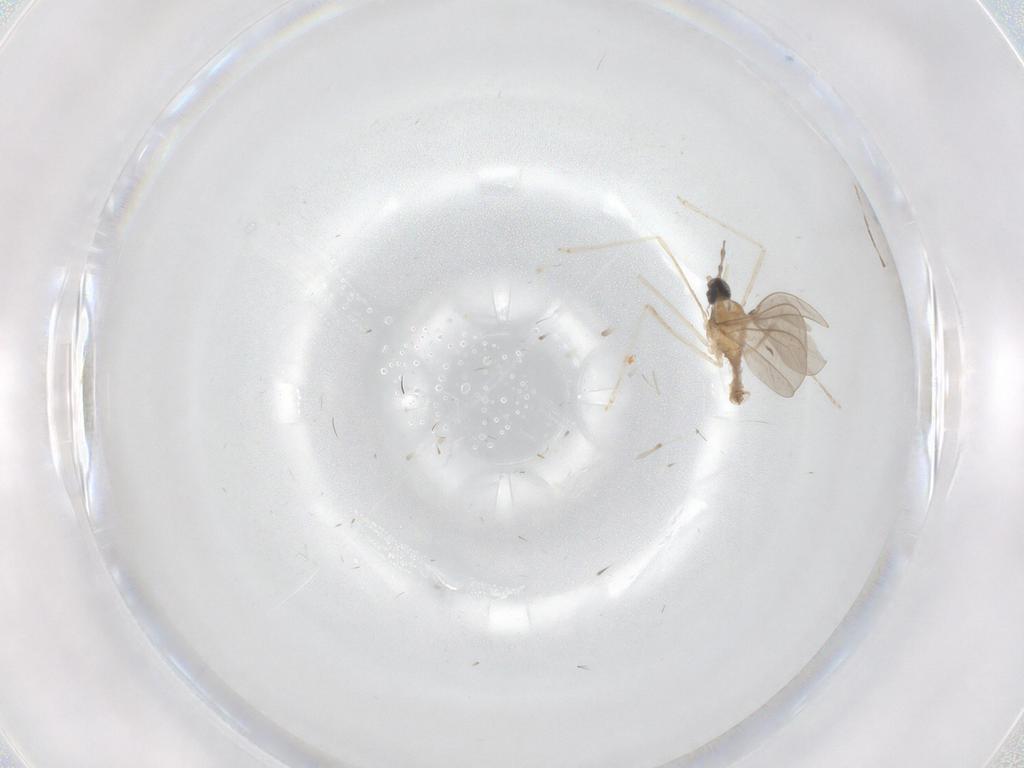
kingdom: Animalia
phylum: Arthropoda
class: Insecta
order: Diptera
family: Cecidomyiidae
